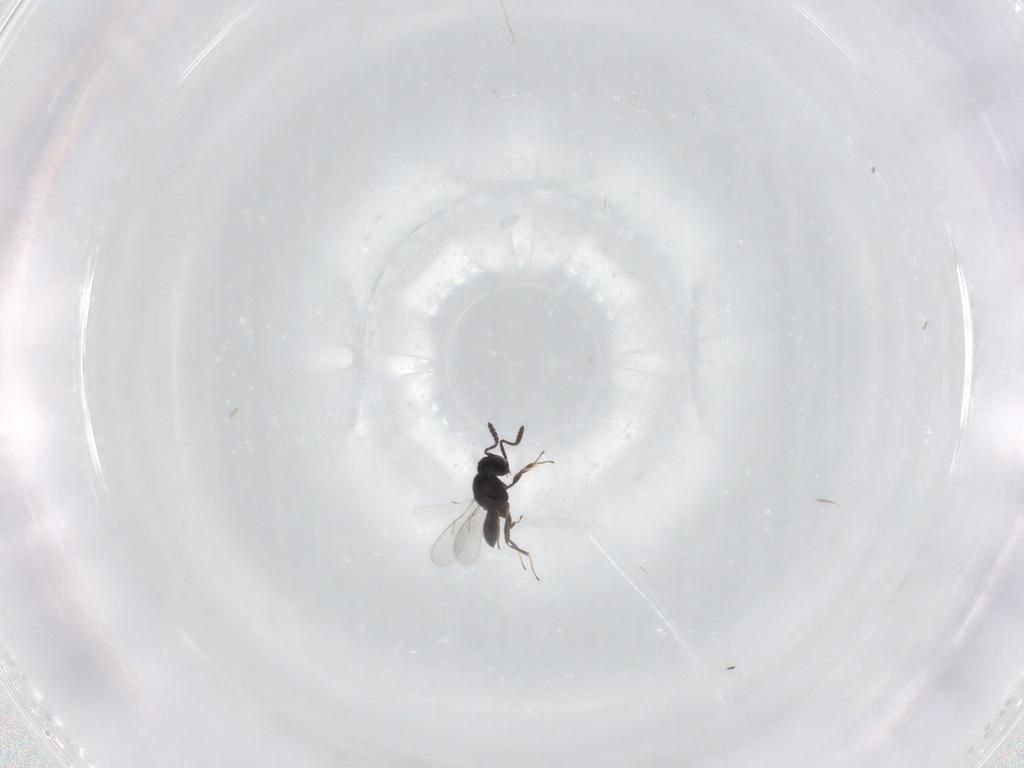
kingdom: Animalia
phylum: Arthropoda
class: Insecta
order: Hymenoptera
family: Scelionidae
